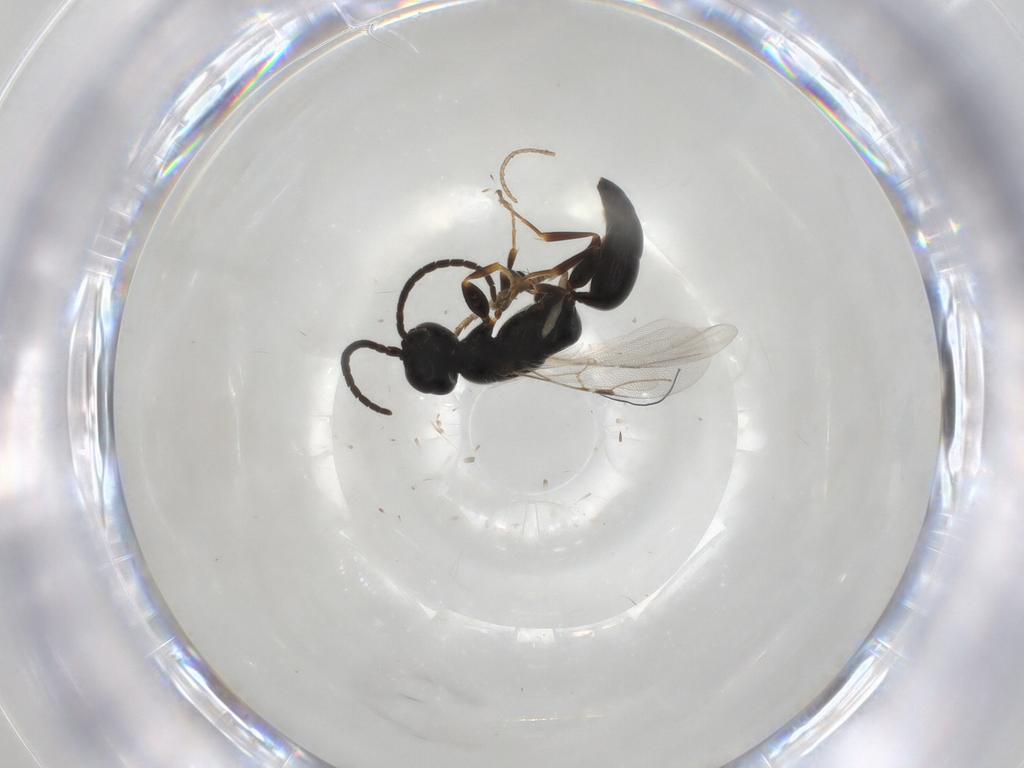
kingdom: Animalia
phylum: Arthropoda
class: Insecta
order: Hymenoptera
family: Bethylidae
